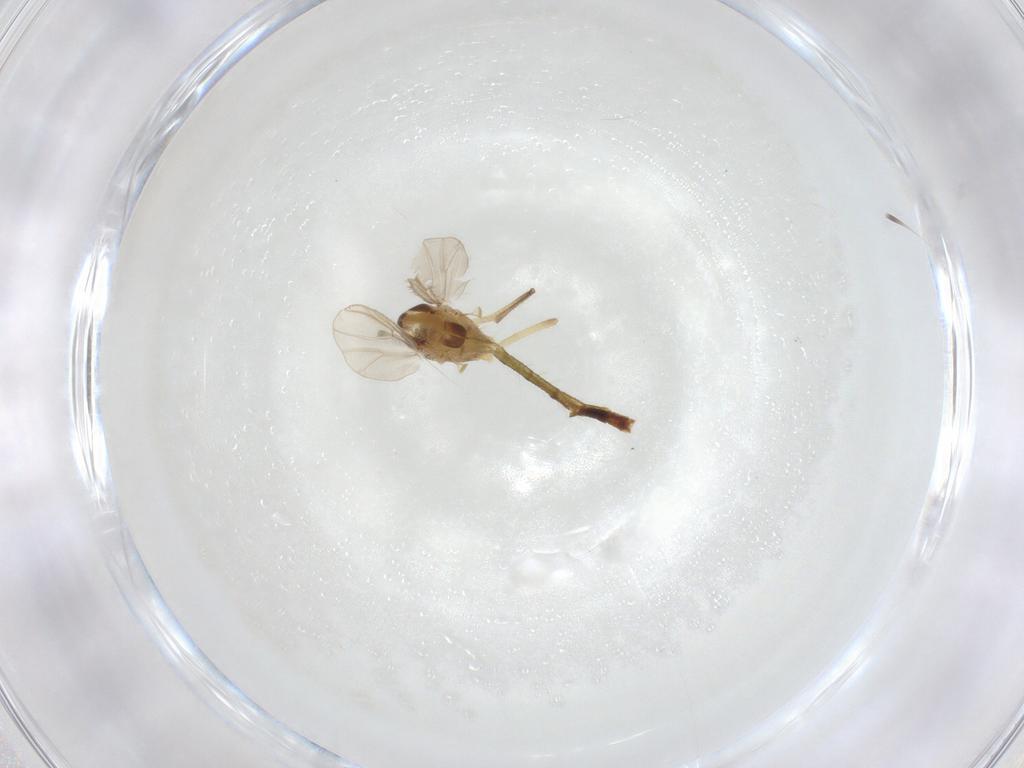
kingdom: Animalia
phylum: Arthropoda
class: Insecta
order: Diptera
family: Chironomidae
